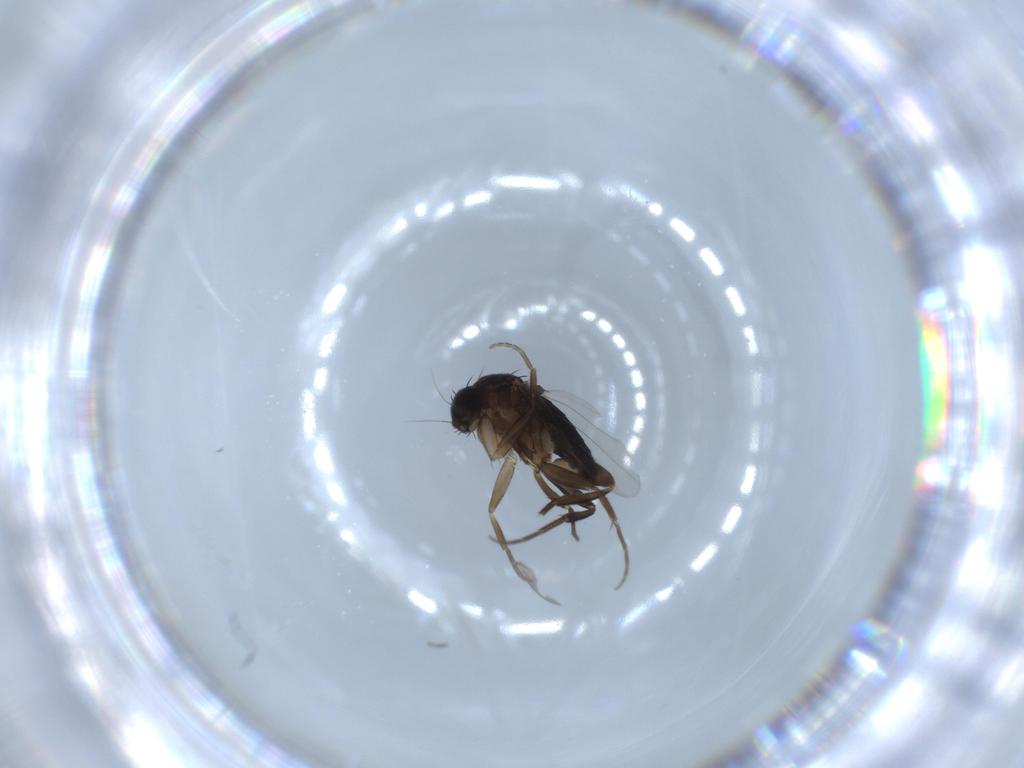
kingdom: Animalia
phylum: Arthropoda
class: Insecta
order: Diptera
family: Phoridae
